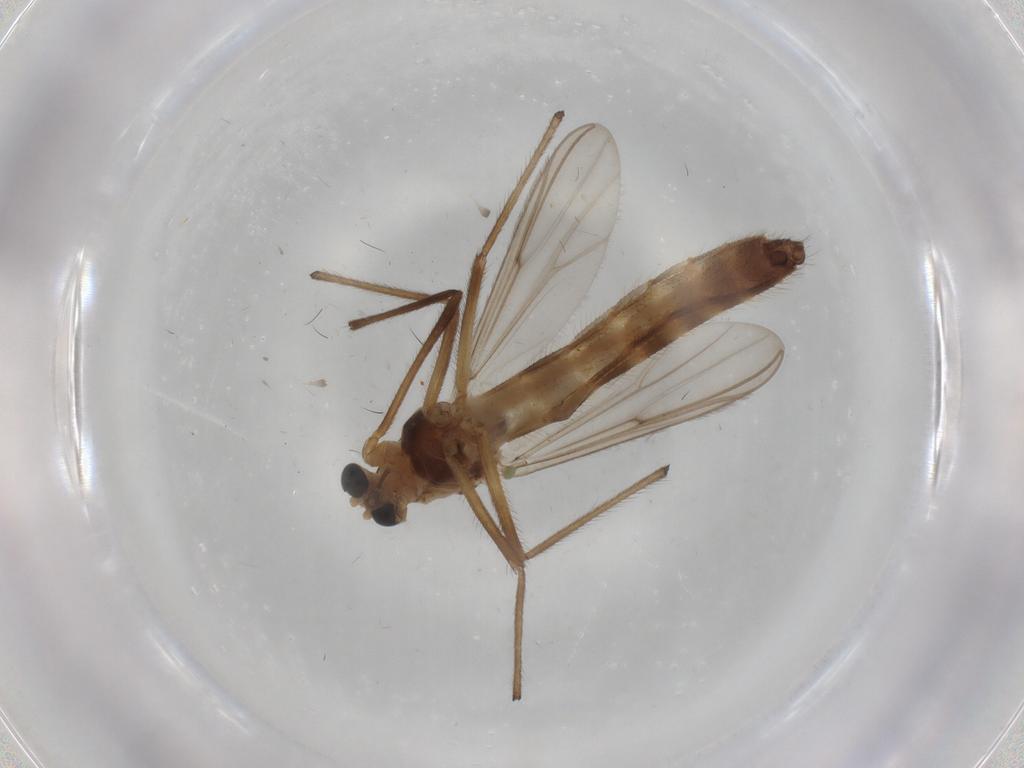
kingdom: Animalia
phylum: Arthropoda
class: Insecta
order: Diptera
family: Phoridae
